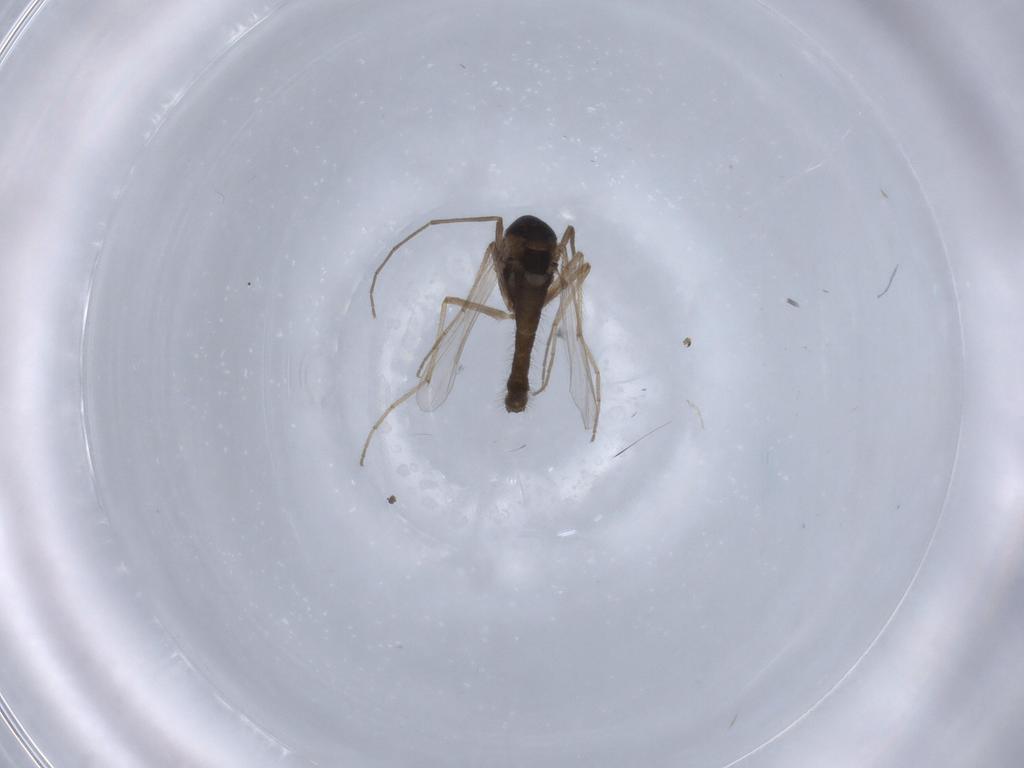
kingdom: Animalia
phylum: Arthropoda
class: Insecta
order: Diptera
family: Chironomidae
